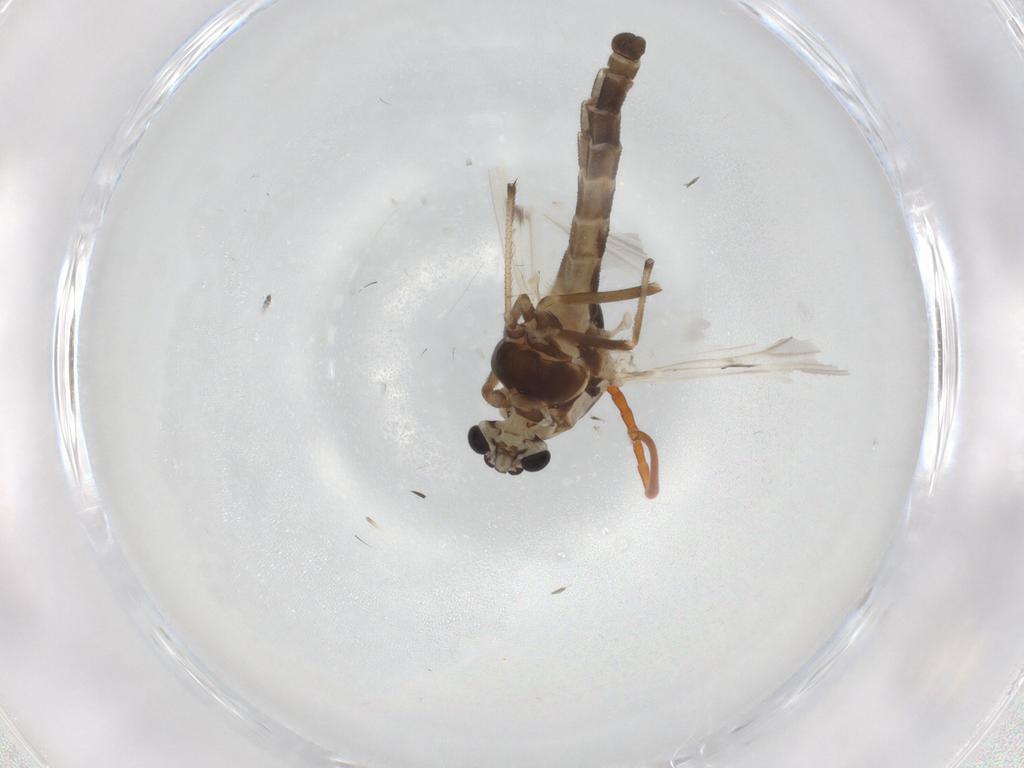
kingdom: Animalia
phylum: Arthropoda
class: Insecta
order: Diptera
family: Chironomidae
